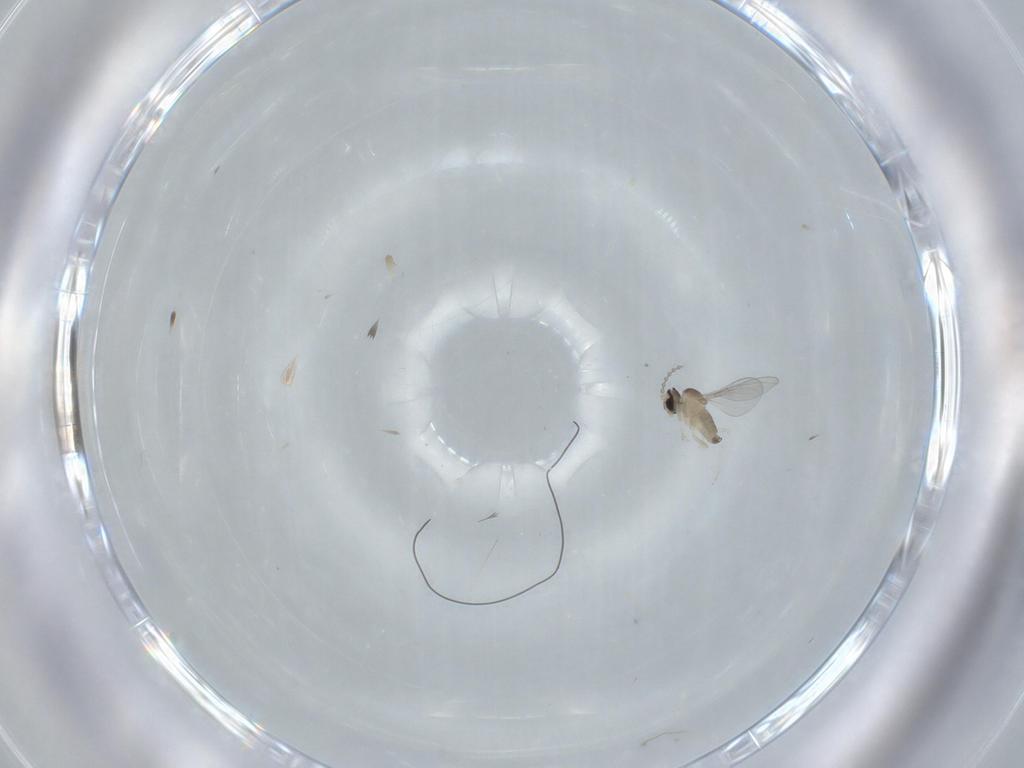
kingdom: Animalia
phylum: Arthropoda
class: Insecta
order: Diptera
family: Cecidomyiidae
